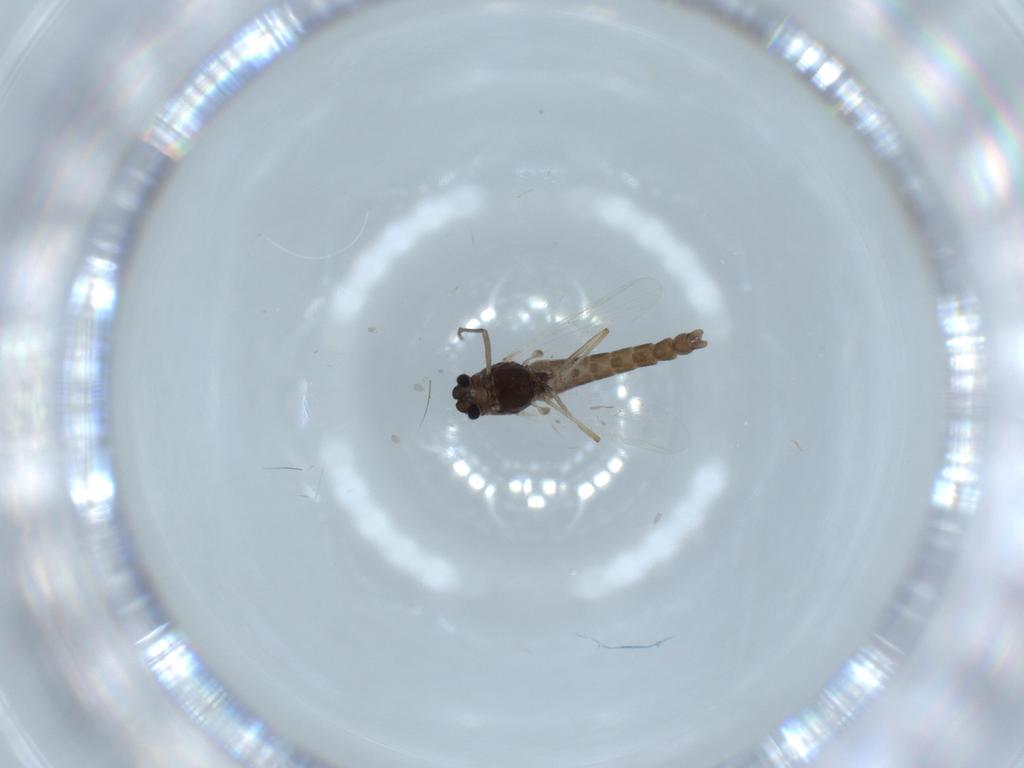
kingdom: Animalia
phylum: Arthropoda
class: Insecta
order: Diptera
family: Chironomidae
